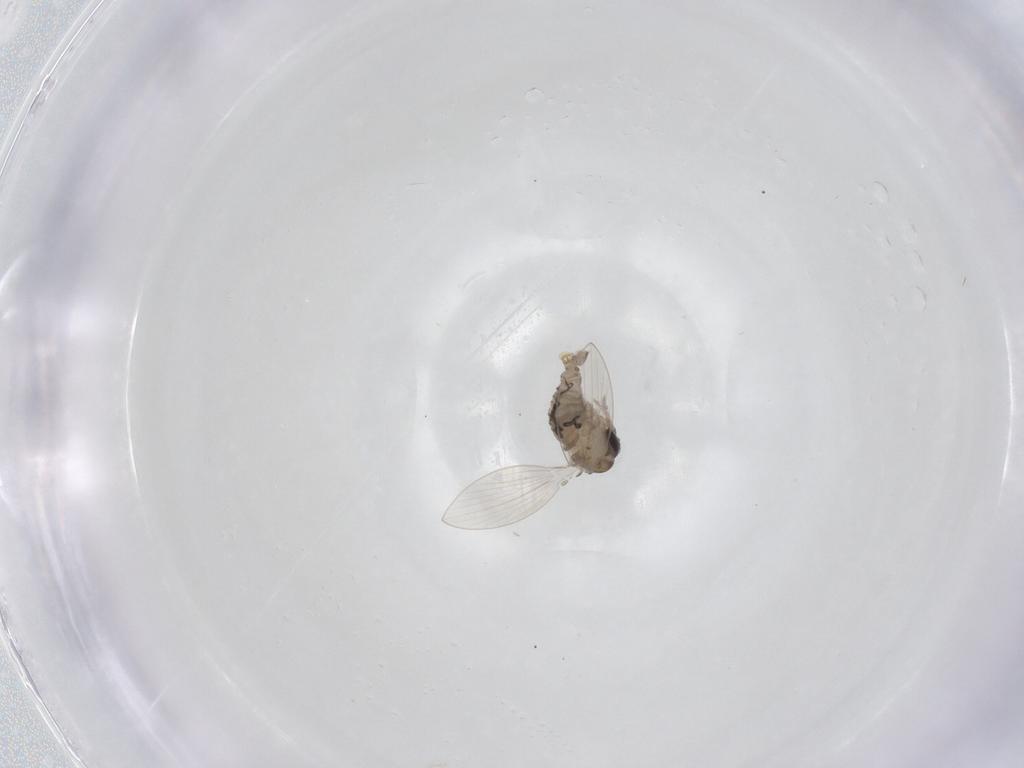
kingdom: Animalia
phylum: Arthropoda
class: Insecta
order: Diptera
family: Psychodidae
